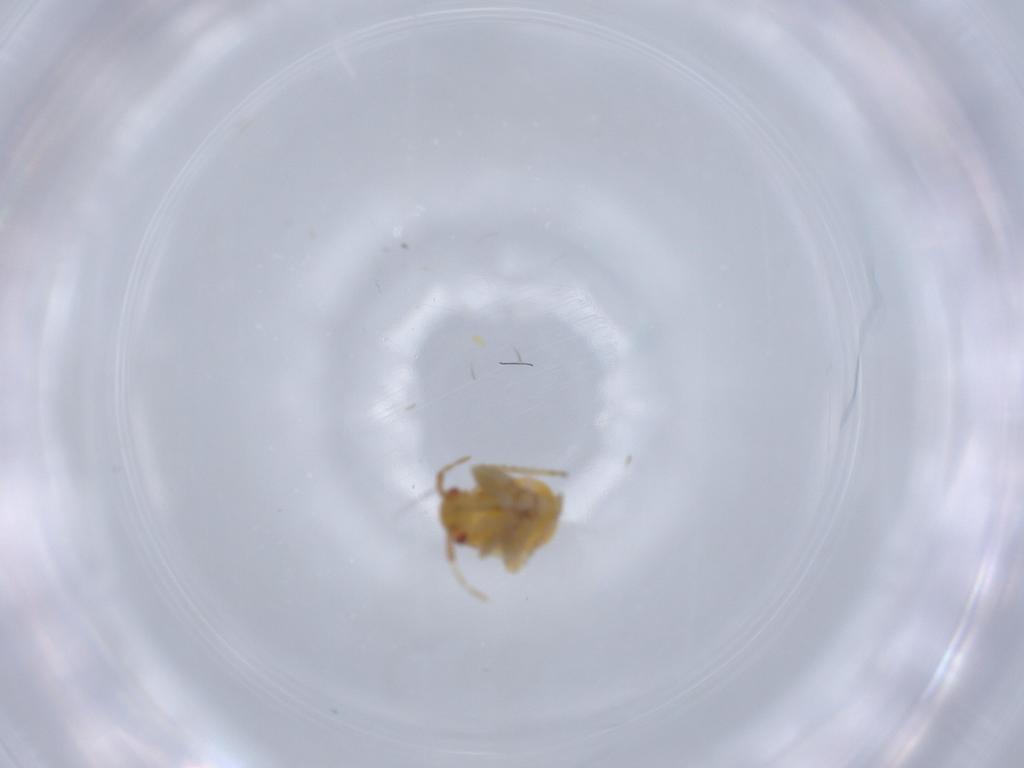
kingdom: Animalia
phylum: Arthropoda
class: Insecta
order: Hemiptera
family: Miridae
